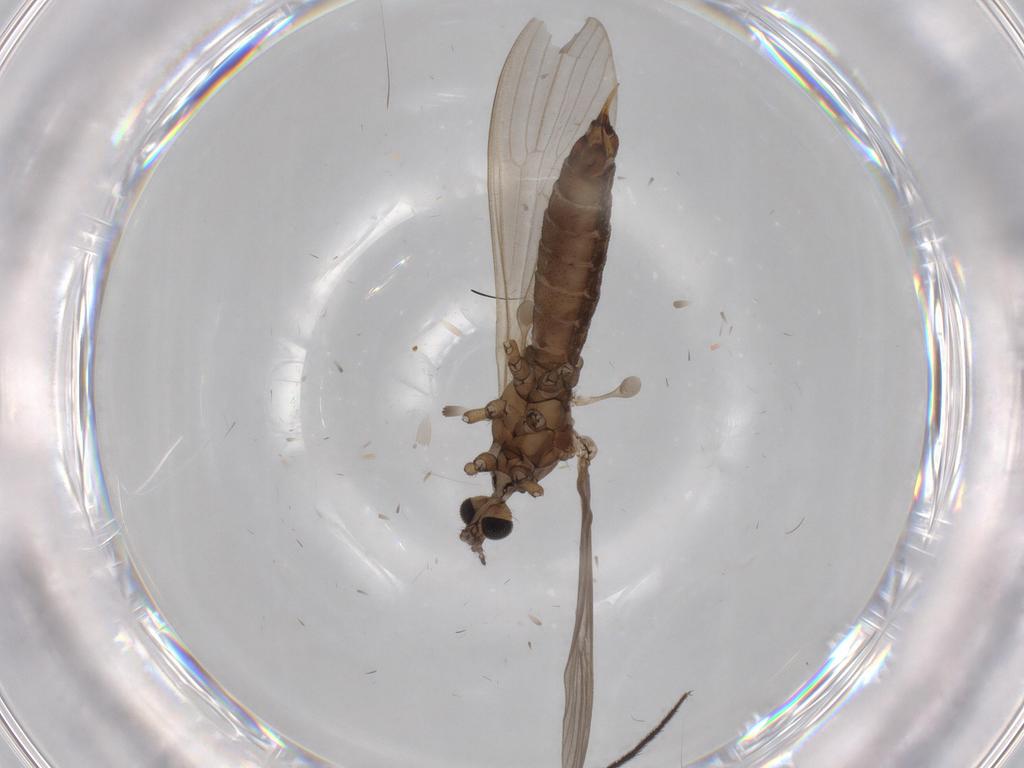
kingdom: Animalia
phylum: Arthropoda
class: Insecta
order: Diptera
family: Limoniidae
